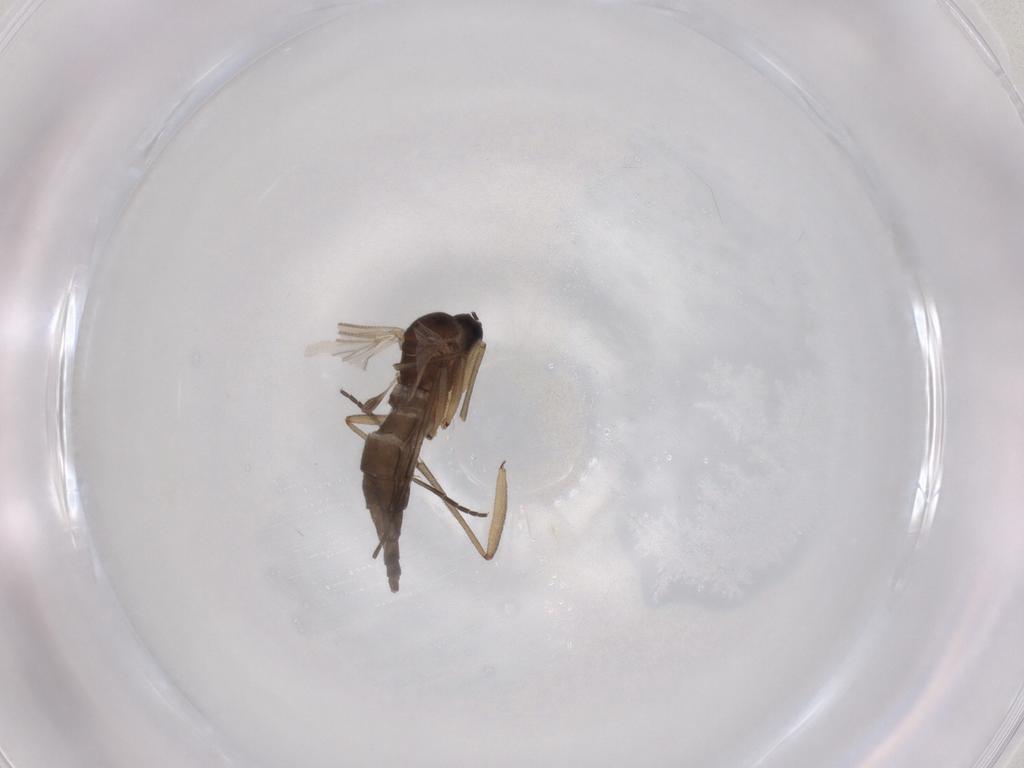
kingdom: Animalia
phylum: Arthropoda
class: Insecta
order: Diptera
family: Sciaridae
